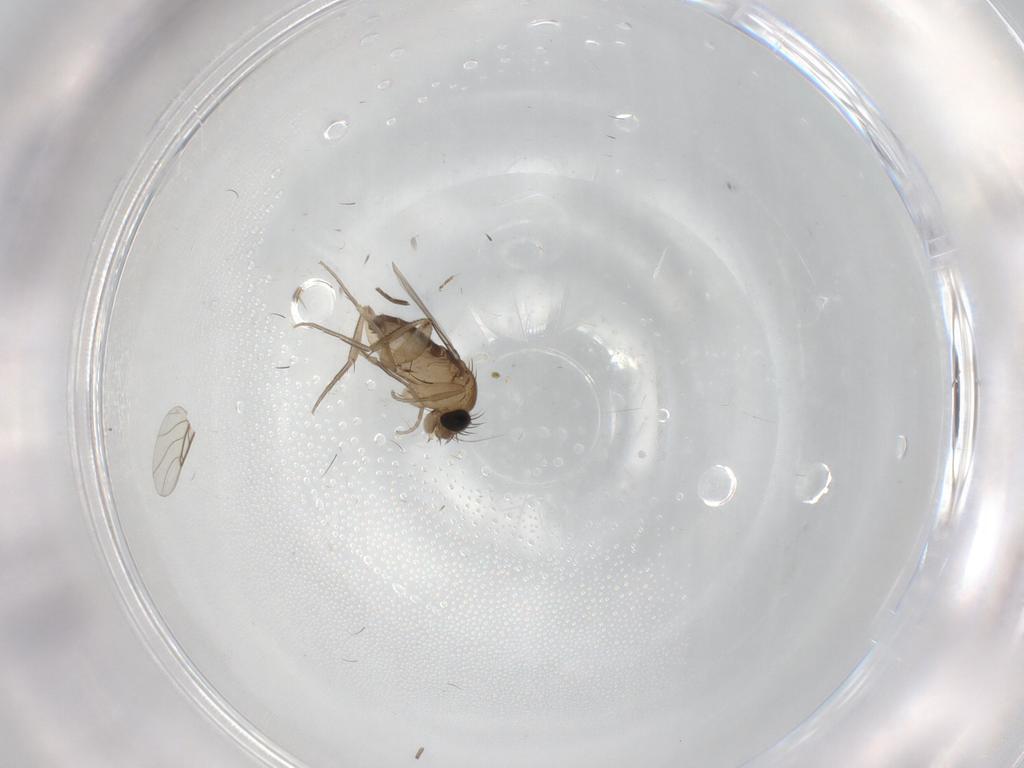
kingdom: Animalia
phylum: Arthropoda
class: Insecta
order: Diptera
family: Phoridae
